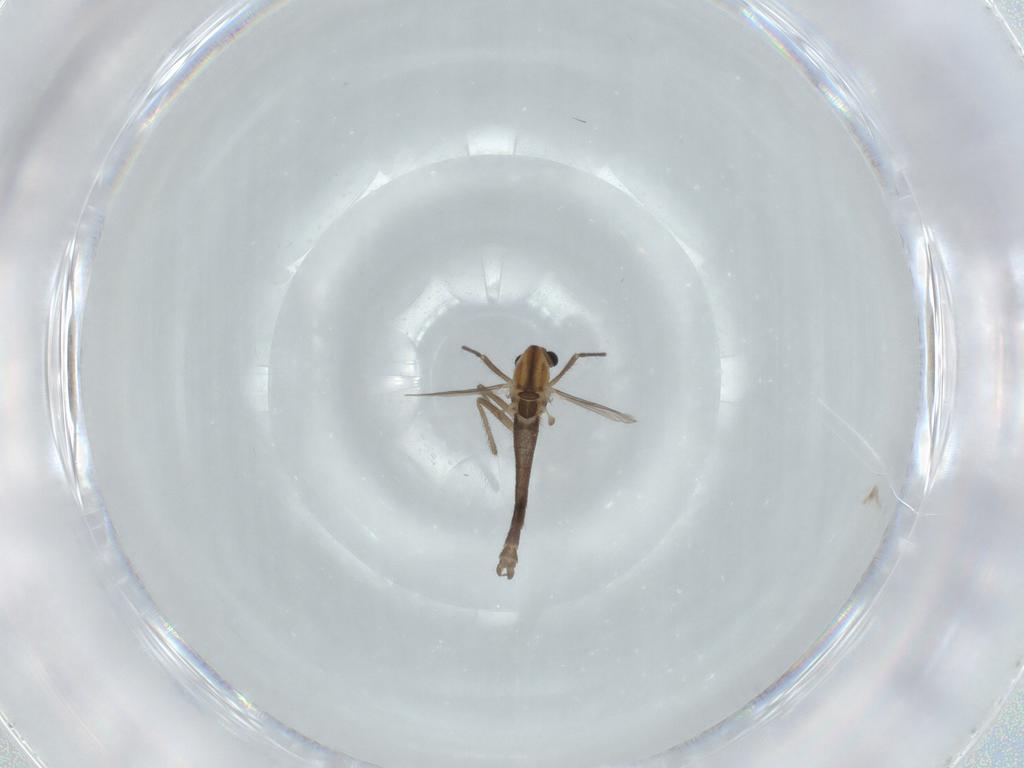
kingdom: Animalia
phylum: Arthropoda
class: Insecta
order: Diptera
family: Chironomidae
